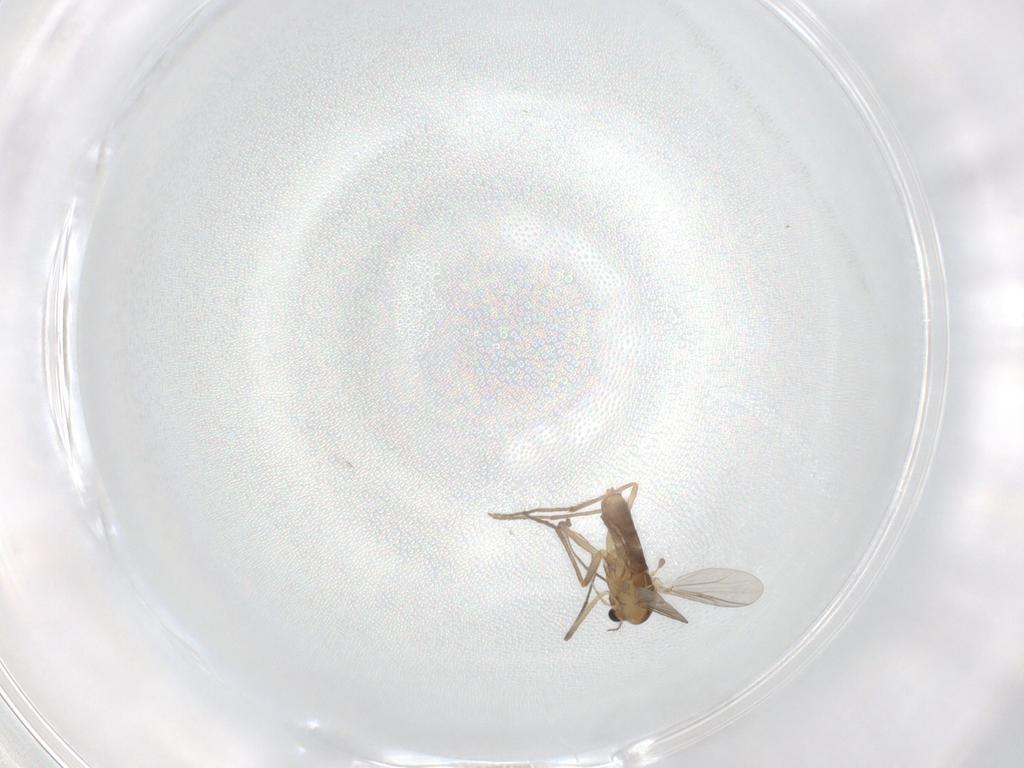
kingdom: Animalia
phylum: Arthropoda
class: Insecta
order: Diptera
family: Chironomidae
